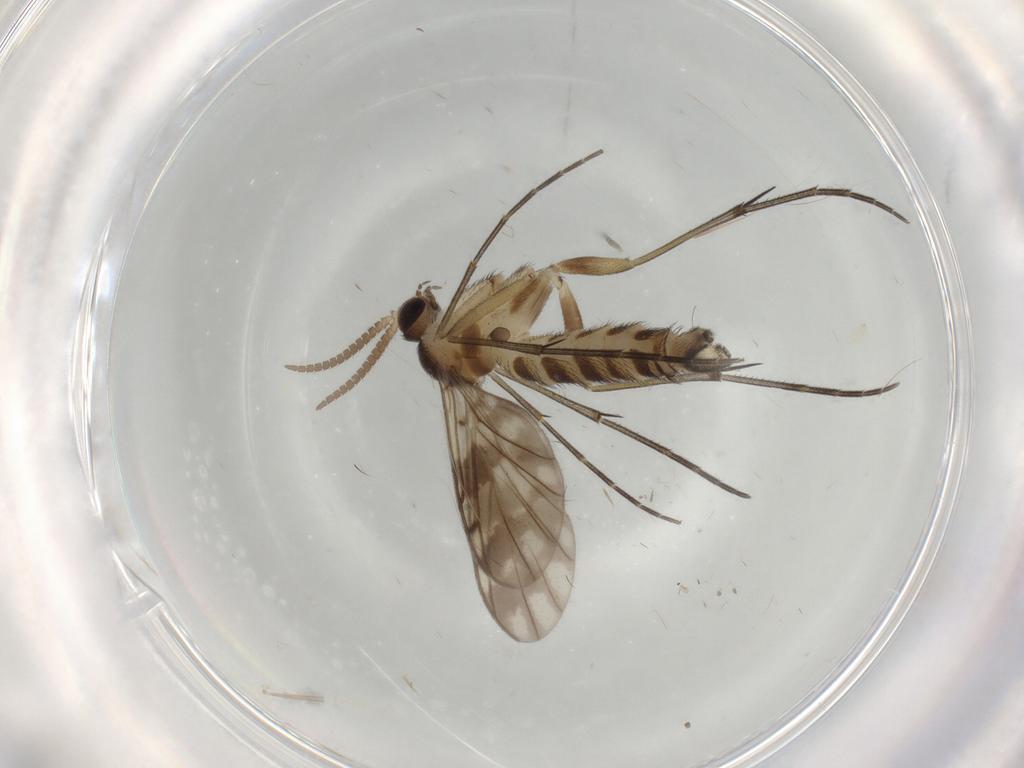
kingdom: Animalia
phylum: Arthropoda
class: Insecta
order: Diptera
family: Keroplatidae
